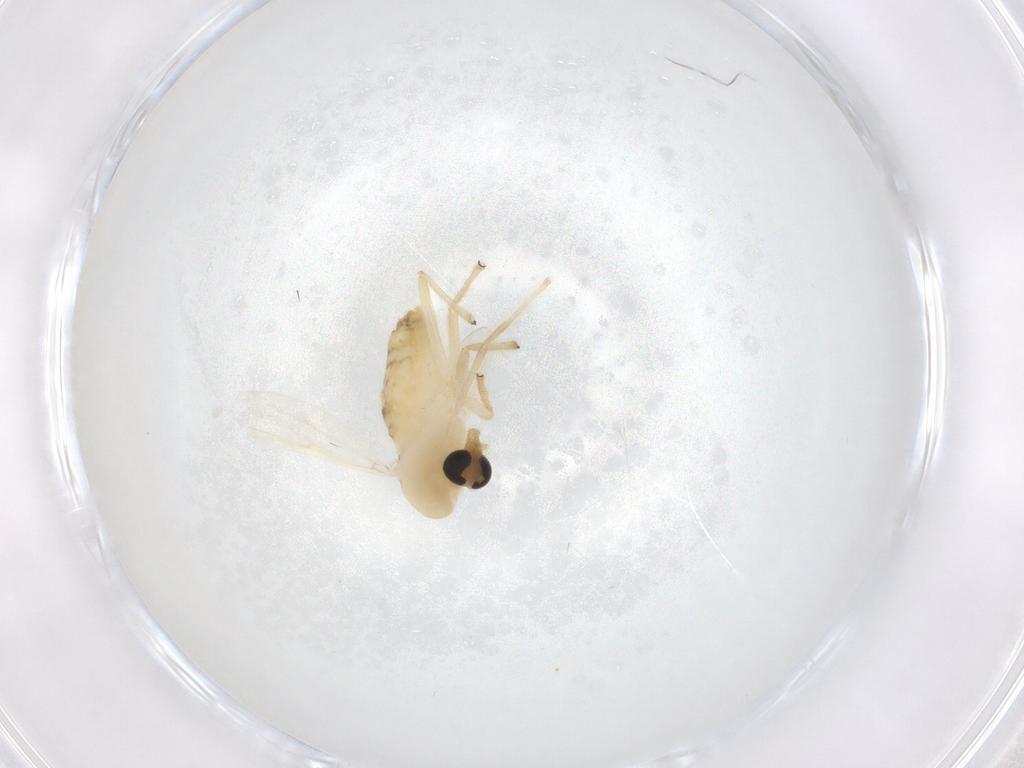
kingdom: Animalia
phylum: Arthropoda
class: Insecta
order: Diptera
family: Chironomidae
